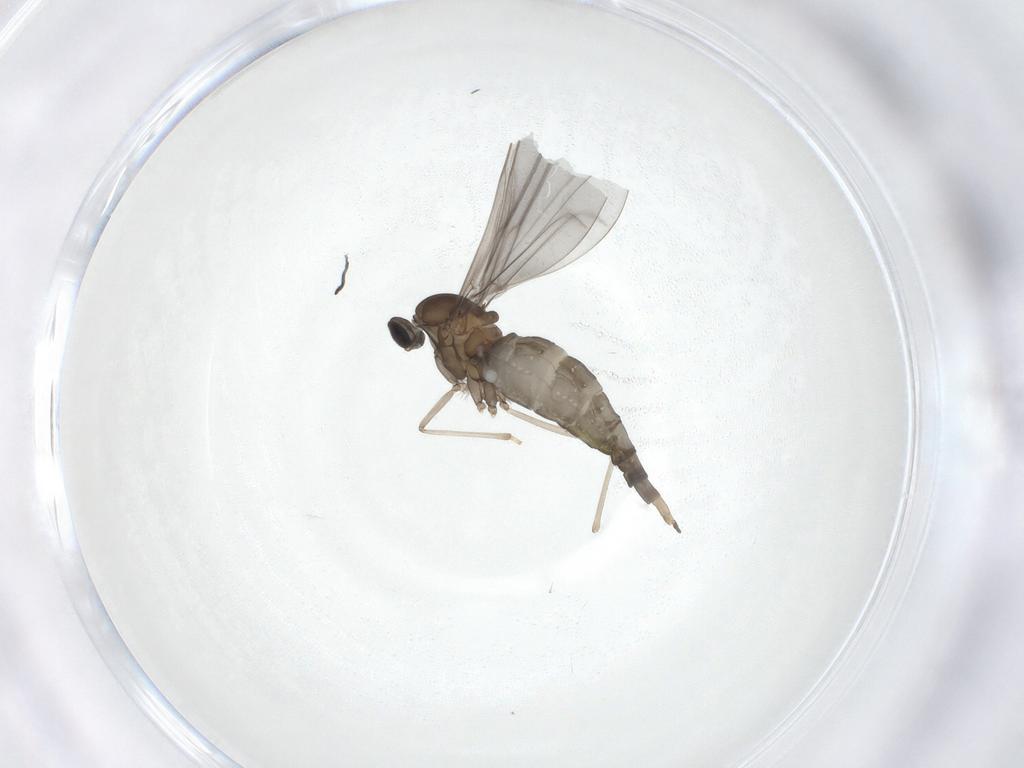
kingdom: Animalia
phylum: Arthropoda
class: Insecta
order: Diptera
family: Cecidomyiidae
